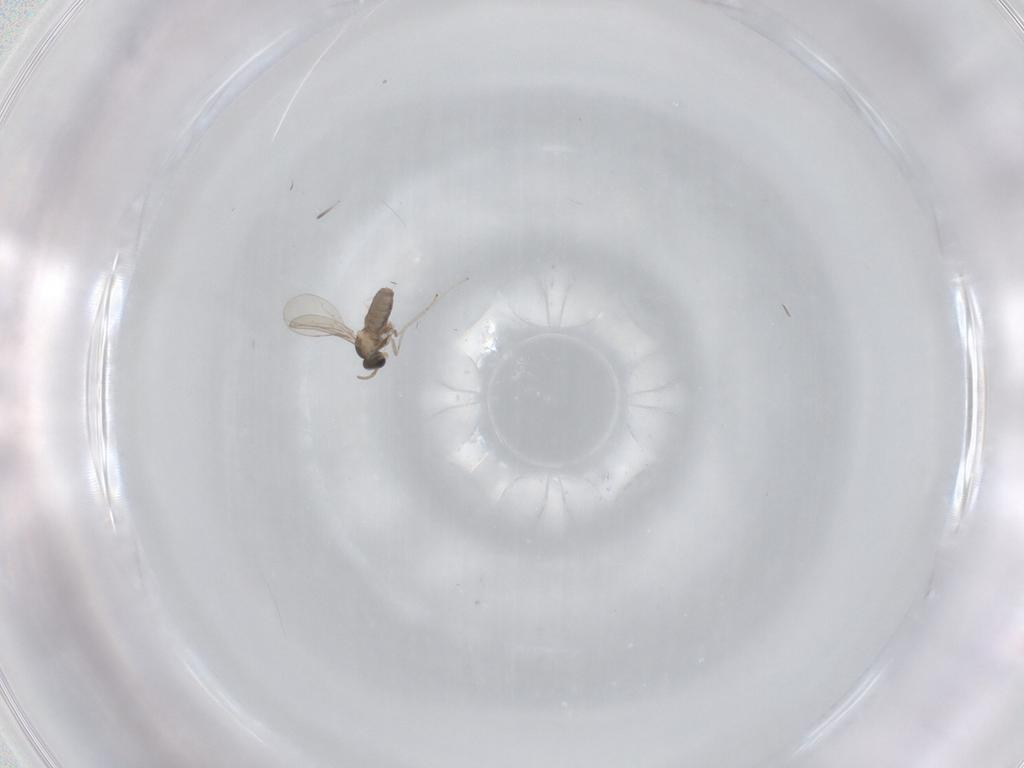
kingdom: Animalia
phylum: Arthropoda
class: Insecta
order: Diptera
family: Cecidomyiidae
